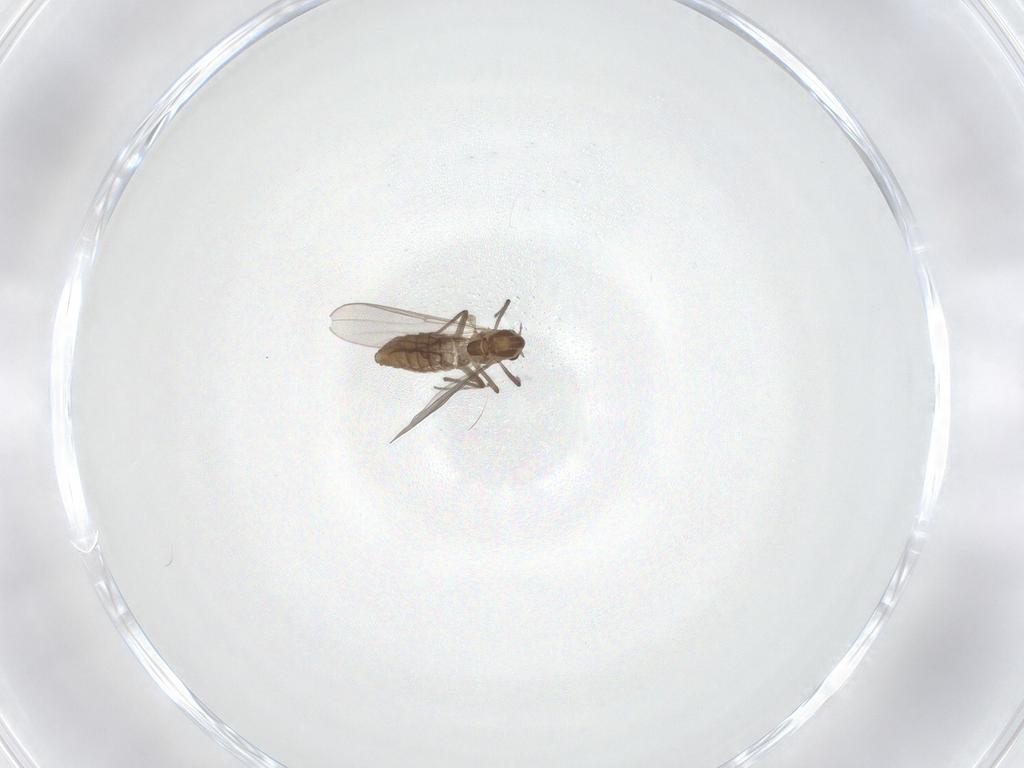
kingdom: Animalia
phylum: Arthropoda
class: Insecta
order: Diptera
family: Chironomidae
